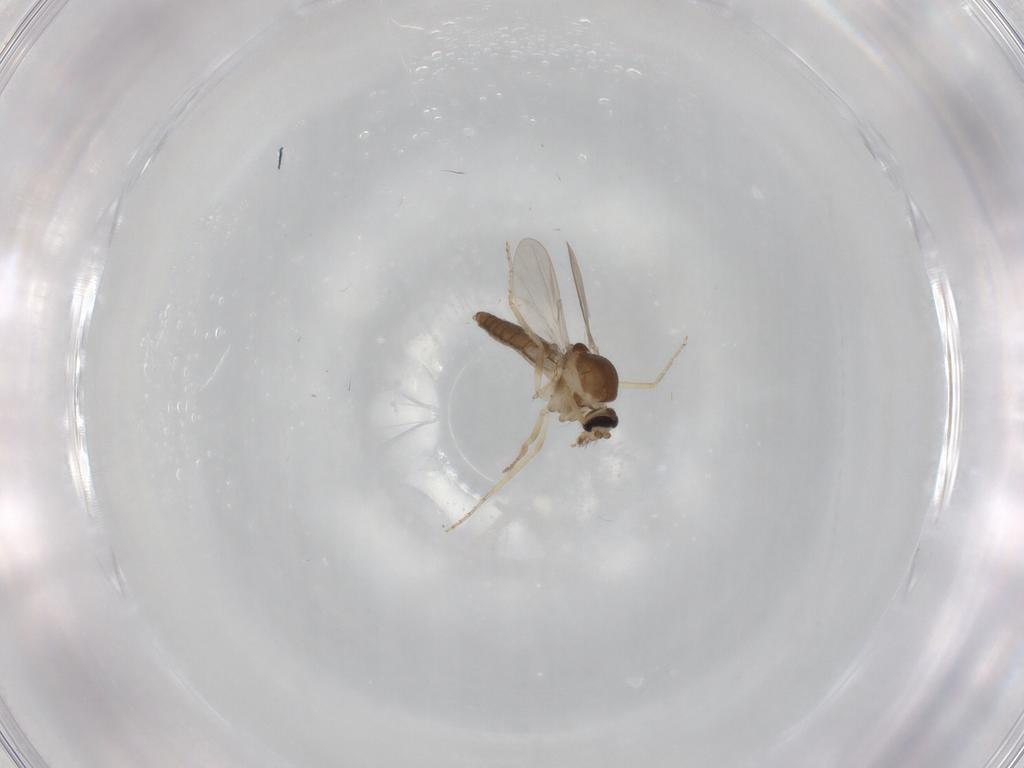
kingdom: Animalia
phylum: Arthropoda
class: Insecta
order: Diptera
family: Ceratopogonidae
